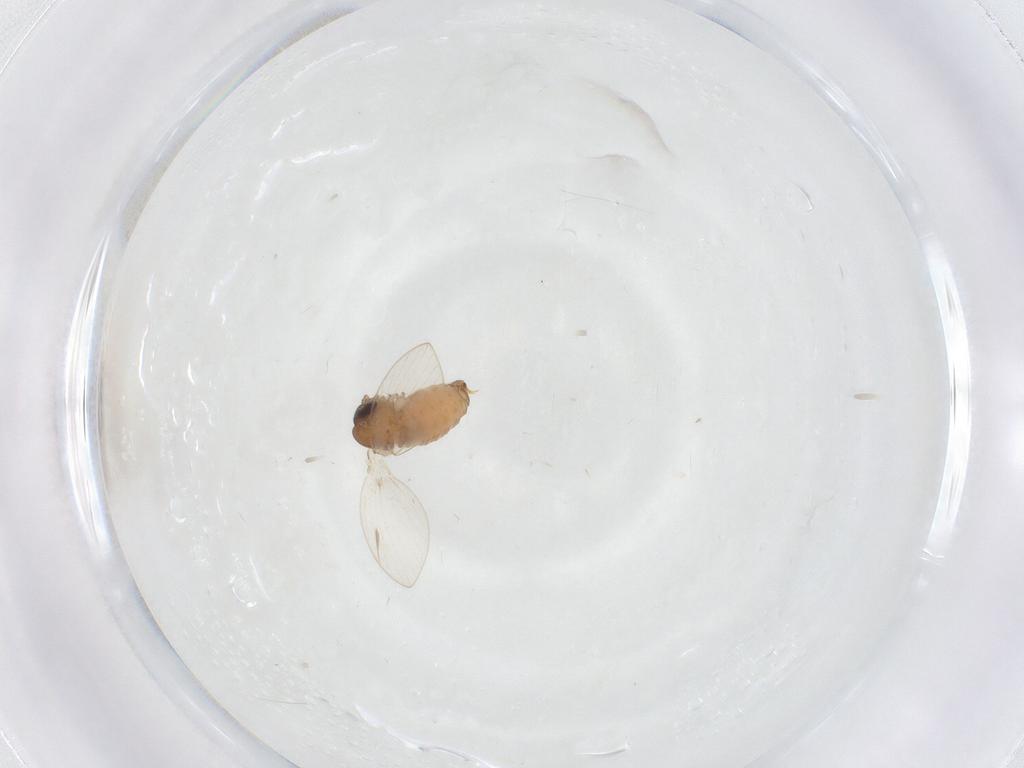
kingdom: Animalia
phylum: Arthropoda
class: Insecta
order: Diptera
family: Psychodidae
